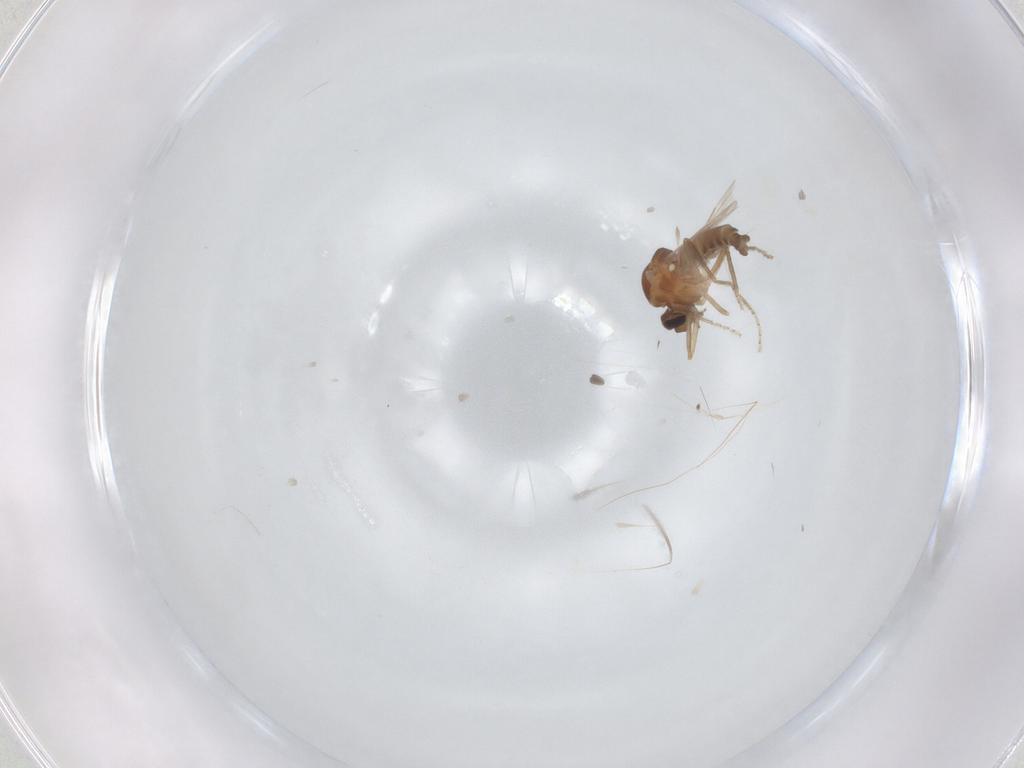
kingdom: Animalia
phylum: Arthropoda
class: Insecta
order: Diptera
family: Ceratopogonidae
